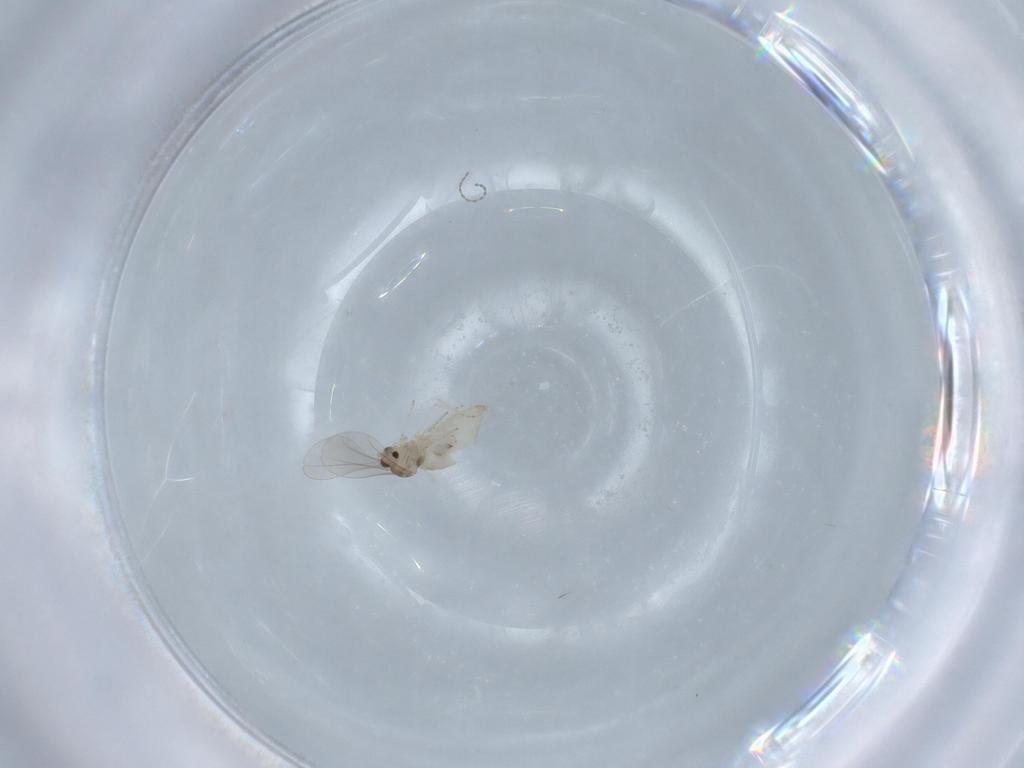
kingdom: Animalia
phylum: Arthropoda
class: Insecta
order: Diptera
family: Cecidomyiidae
